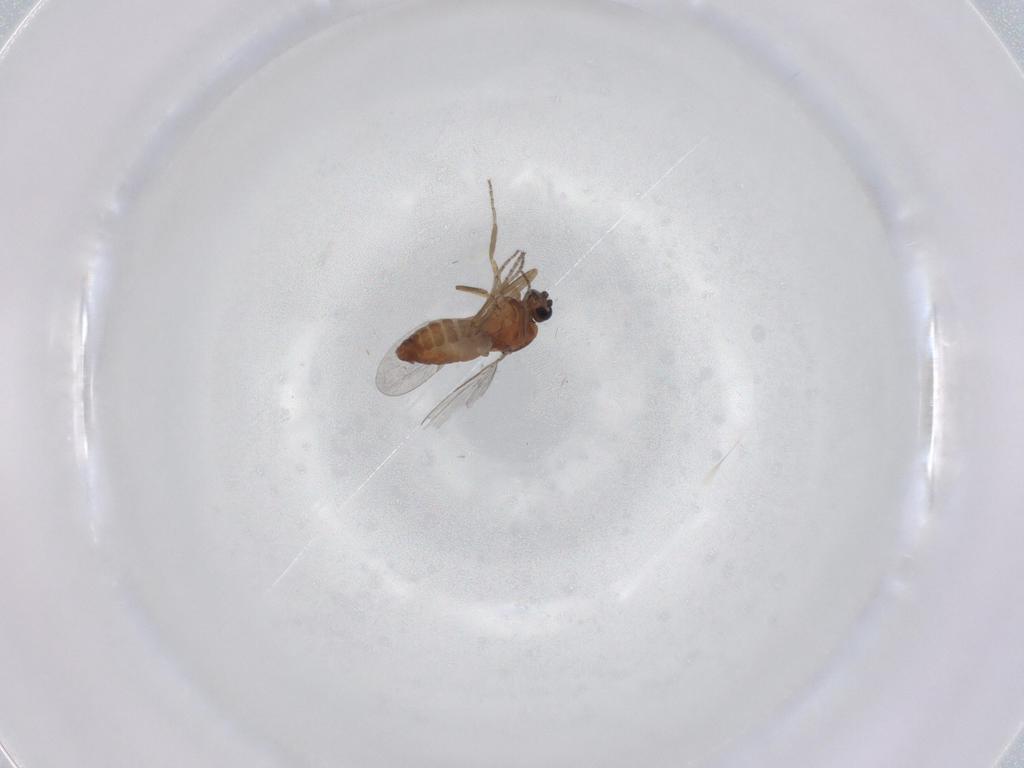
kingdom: Animalia
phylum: Arthropoda
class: Insecta
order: Diptera
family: Ceratopogonidae
